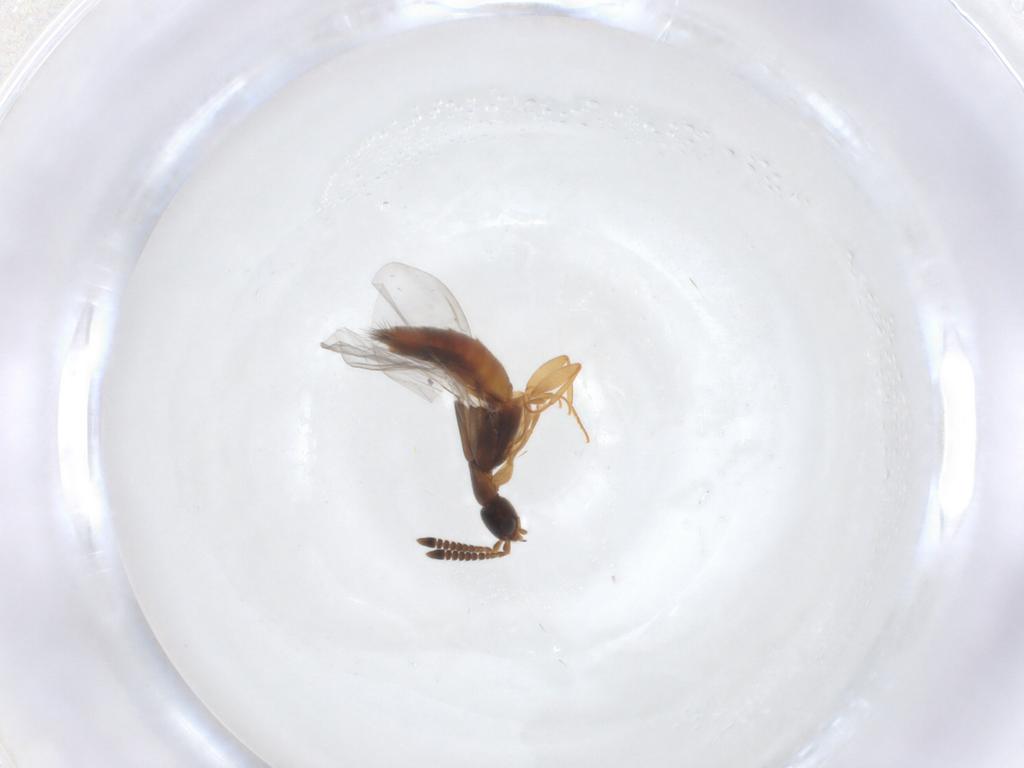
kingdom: Animalia
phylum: Arthropoda
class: Insecta
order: Coleoptera
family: Staphylinidae
